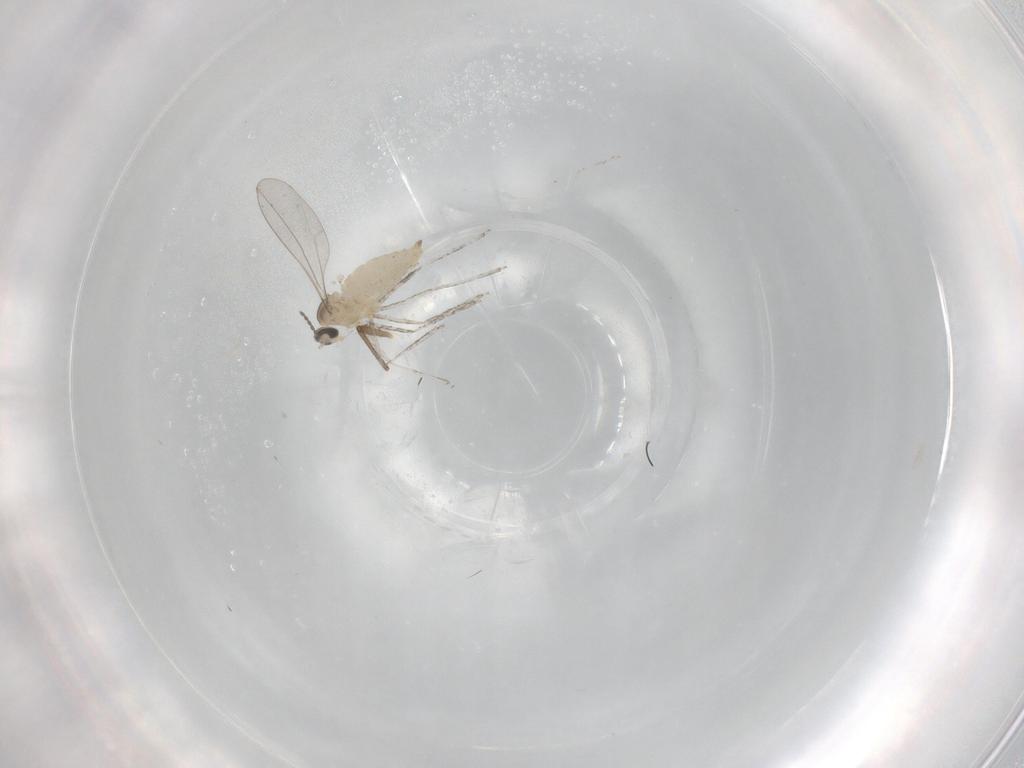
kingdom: Animalia
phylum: Arthropoda
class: Insecta
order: Diptera
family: Cecidomyiidae
